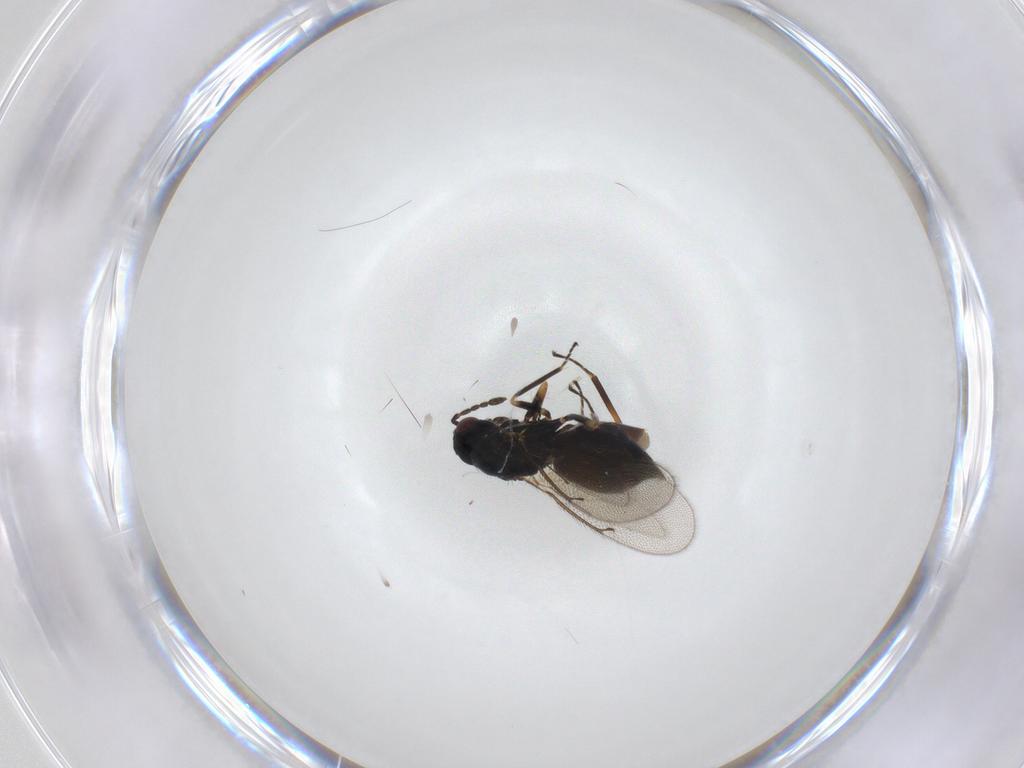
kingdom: Animalia
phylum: Arthropoda
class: Insecta
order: Hymenoptera
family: Eulophidae
